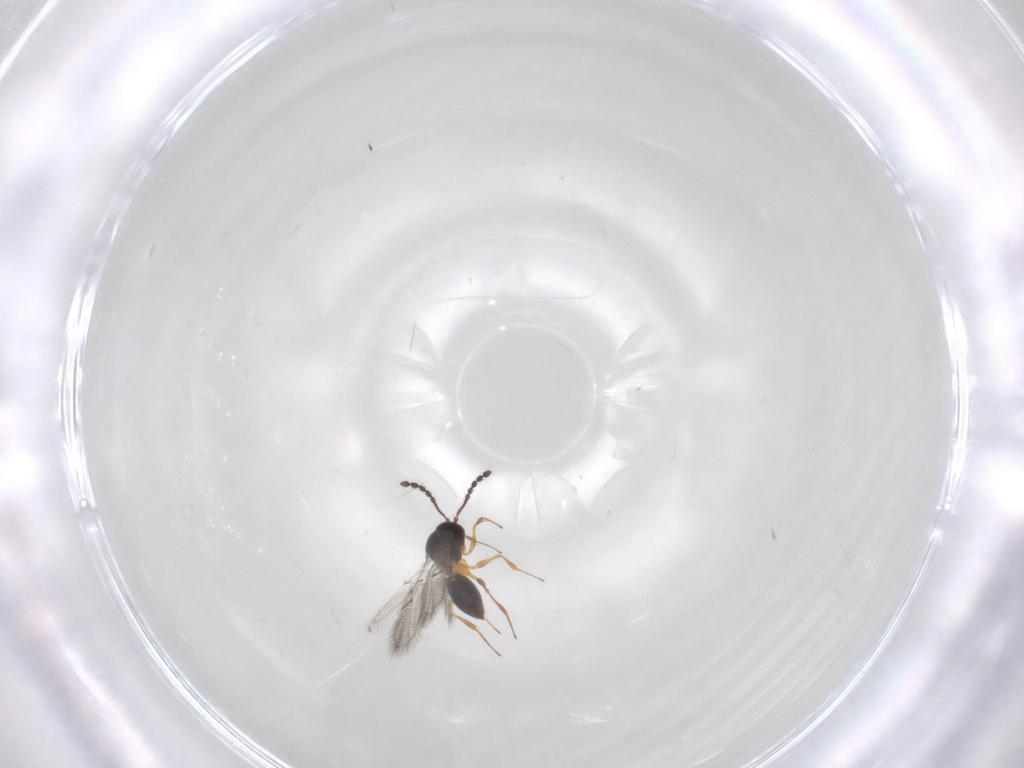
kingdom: Animalia
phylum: Arthropoda
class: Insecta
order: Hymenoptera
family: Figitidae
